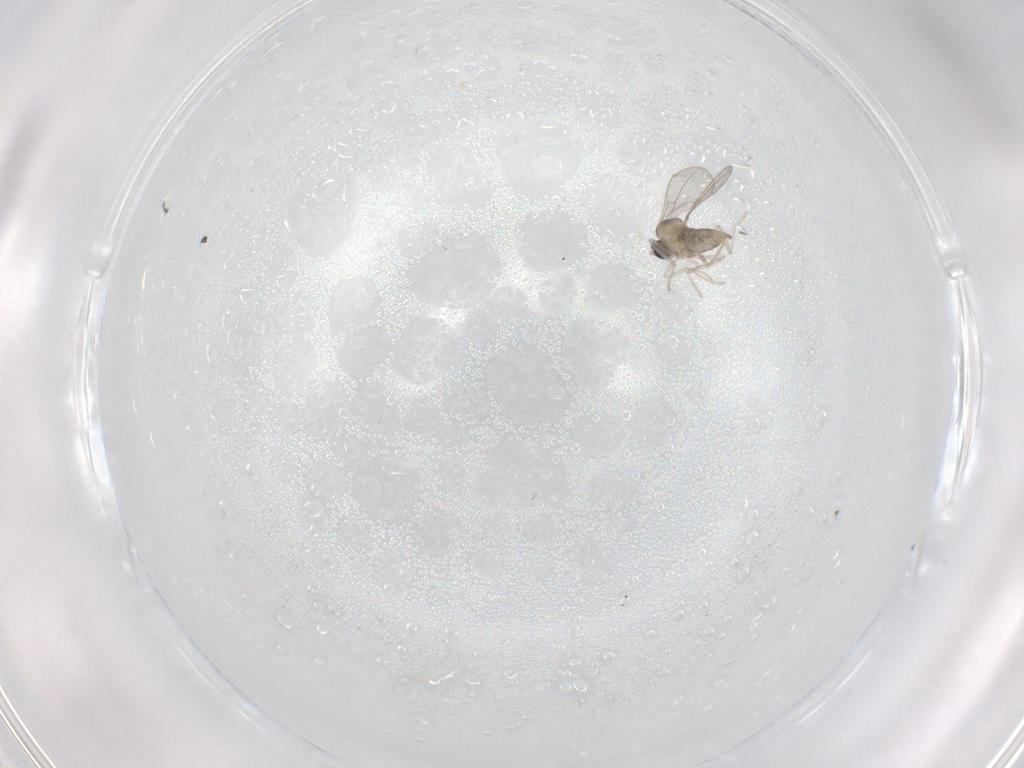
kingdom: Animalia
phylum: Arthropoda
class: Insecta
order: Diptera
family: Cecidomyiidae
